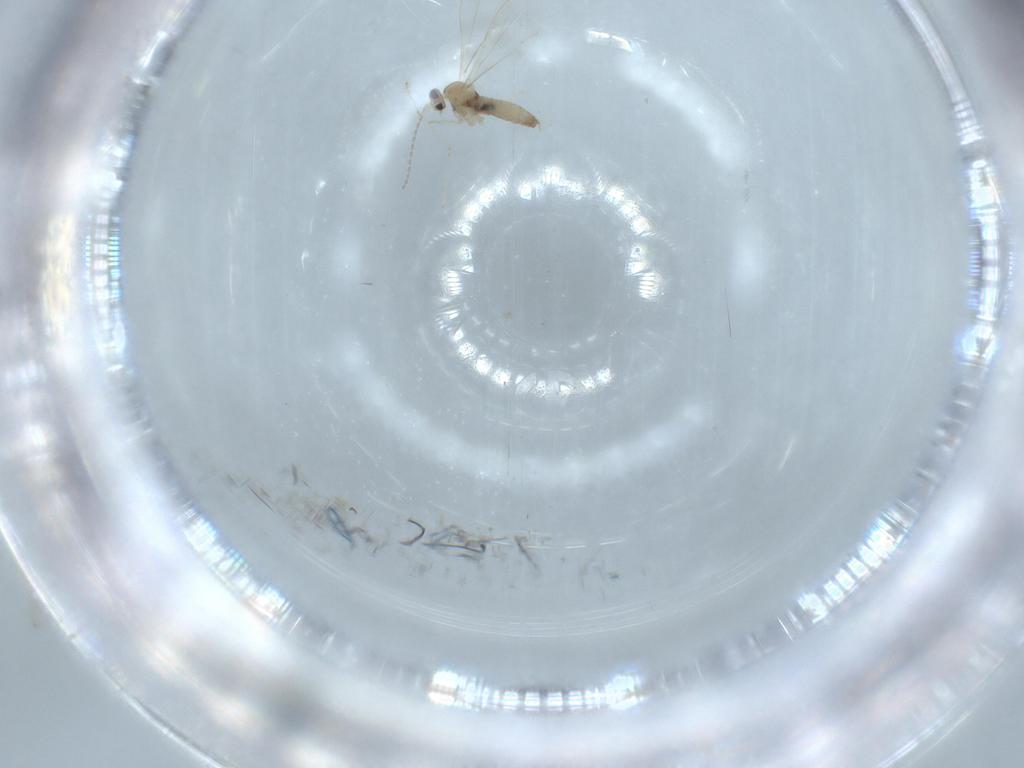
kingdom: Animalia
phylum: Arthropoda
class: Insecta
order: Diptera
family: Cecidomyiidae
